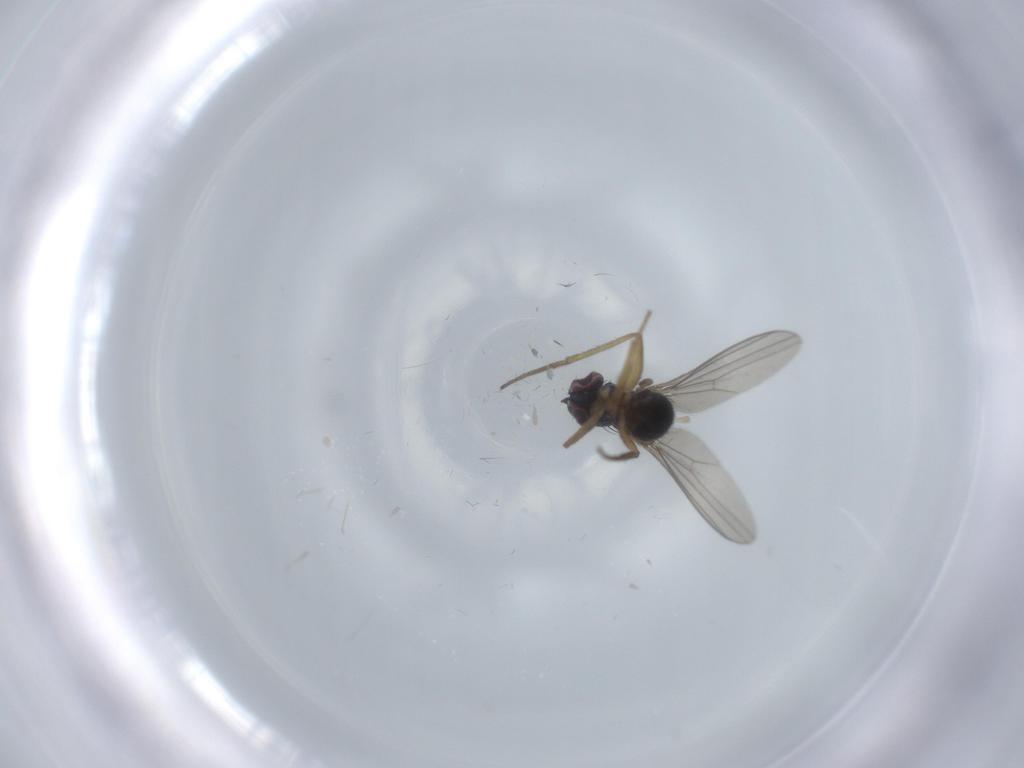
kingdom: Animalia
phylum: Arthropoda
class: Insecta
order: Diptera
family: Dolichopodidae
